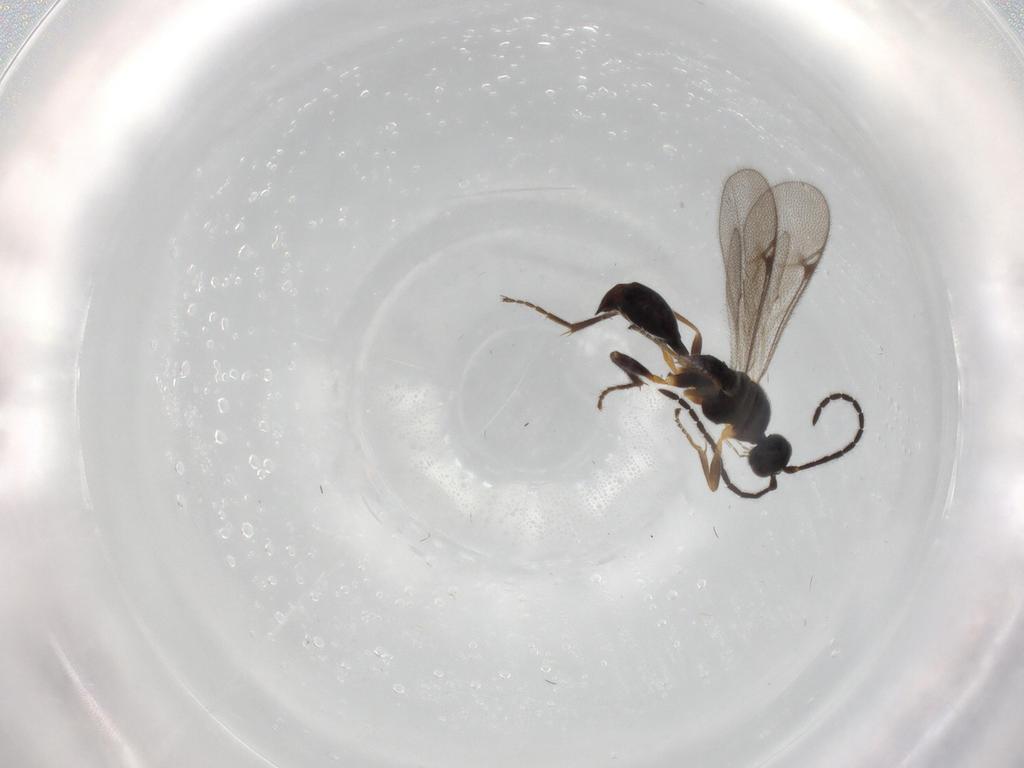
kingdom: Animalia
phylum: Arthropoda
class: Insecta
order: Hymenoptera
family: Proctotrupidae
